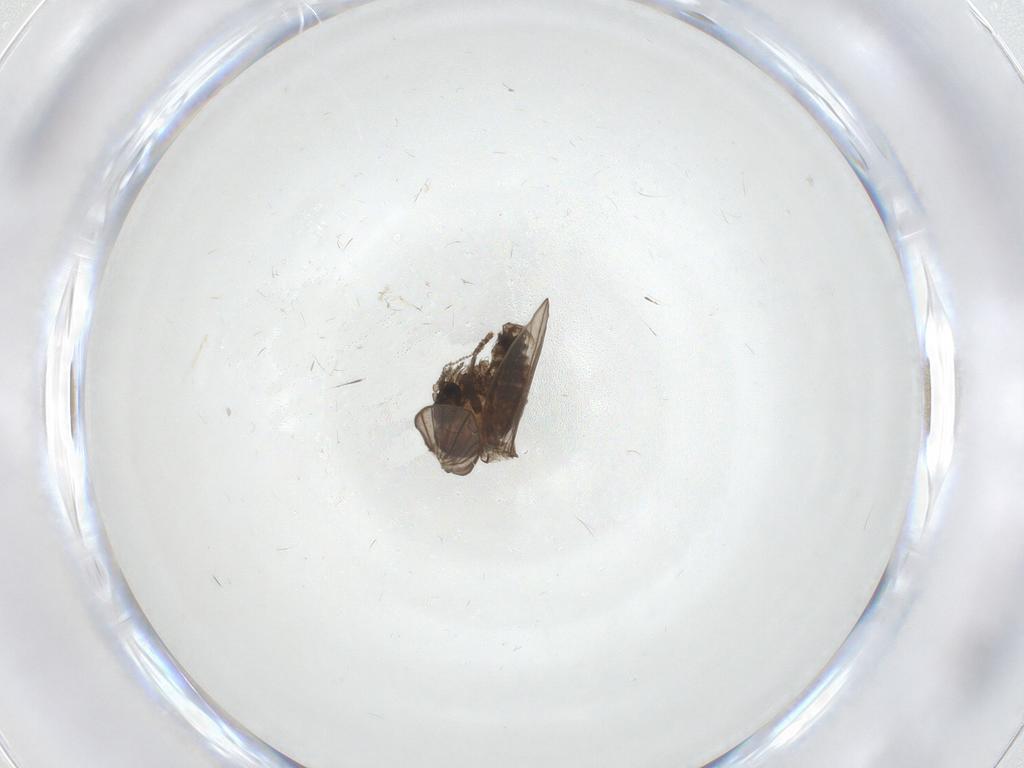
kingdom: Animalia
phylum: Arthropoda
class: Insecta
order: Diptera
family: Psychodidae
